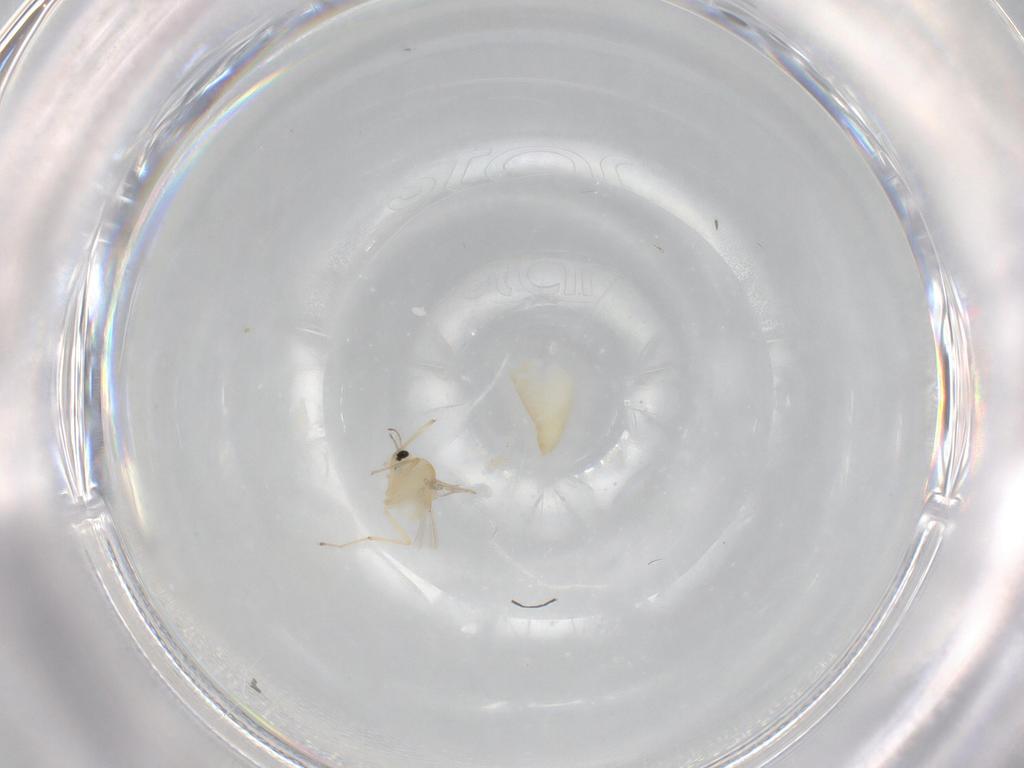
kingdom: Animalia
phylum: Arthropoda
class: Insecta
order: Diptera
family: Chironomidae
